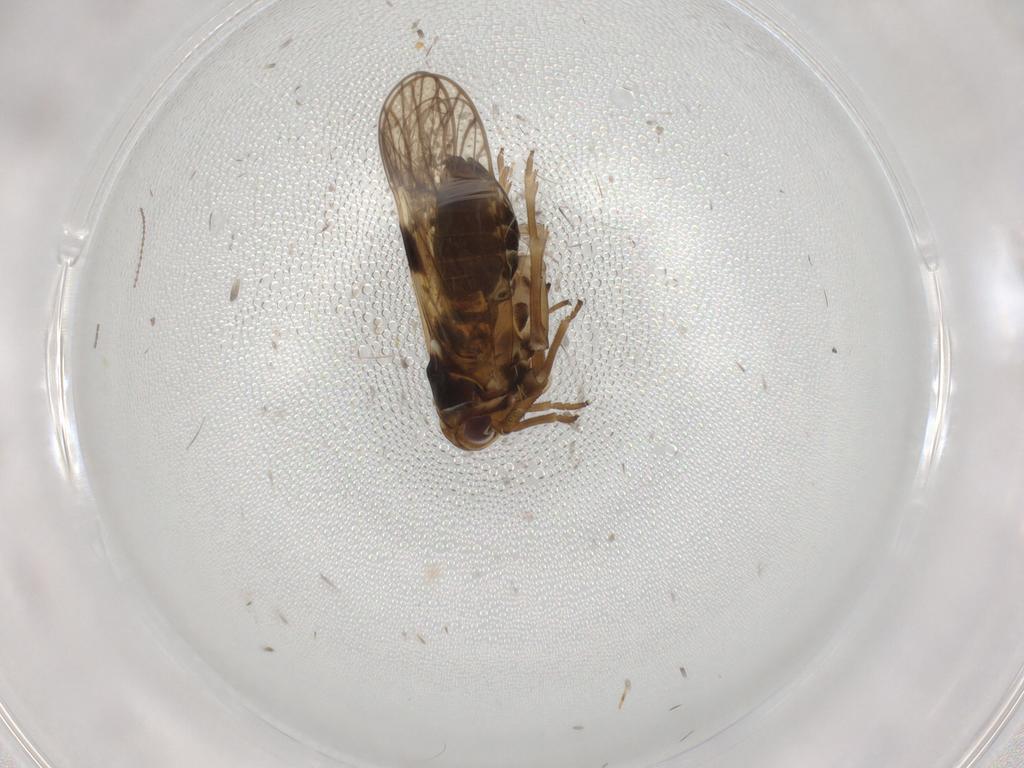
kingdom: Animalia
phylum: Arthropoda
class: Insecta
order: Hemiptera
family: Delphacidae
